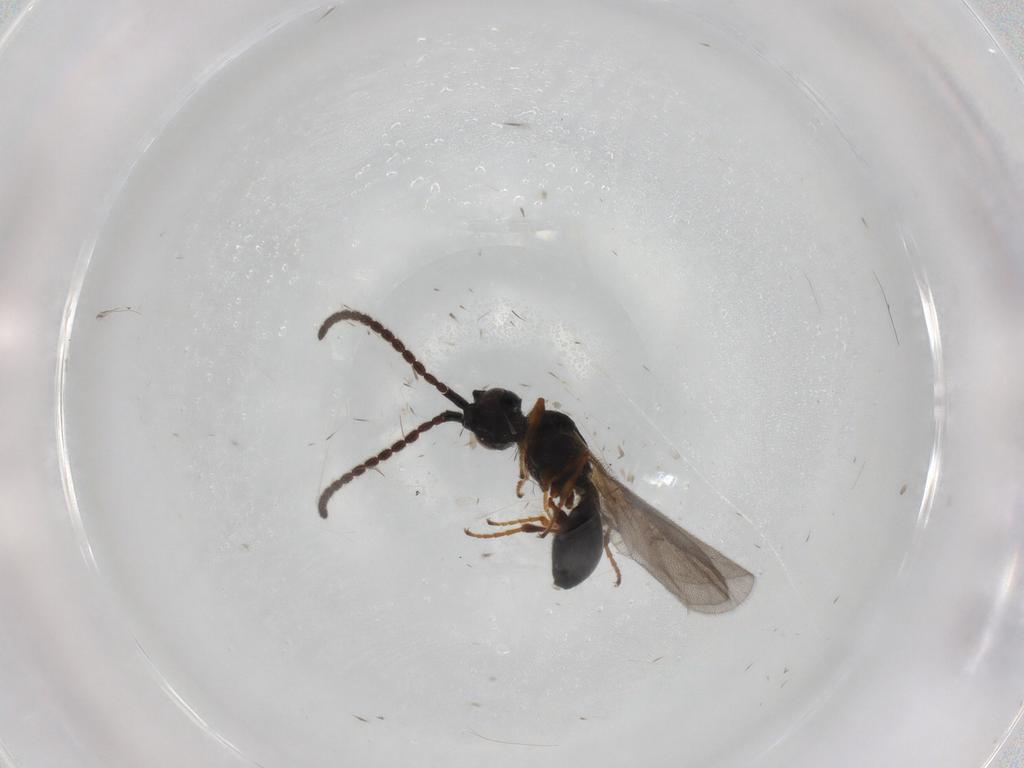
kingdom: Animalia
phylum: Arthropoda
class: Insecta
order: Hymenoptera
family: Diapriidae
